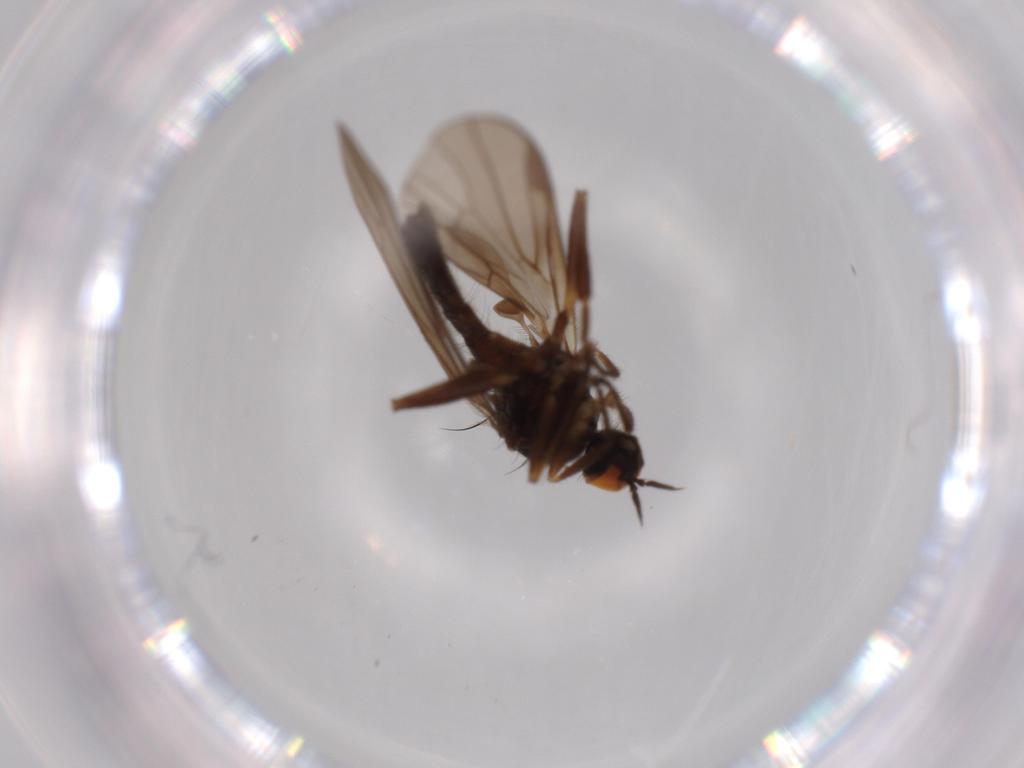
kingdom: Animalia
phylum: Arthropoda
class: Insecta
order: Diptera
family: Hybotidae
